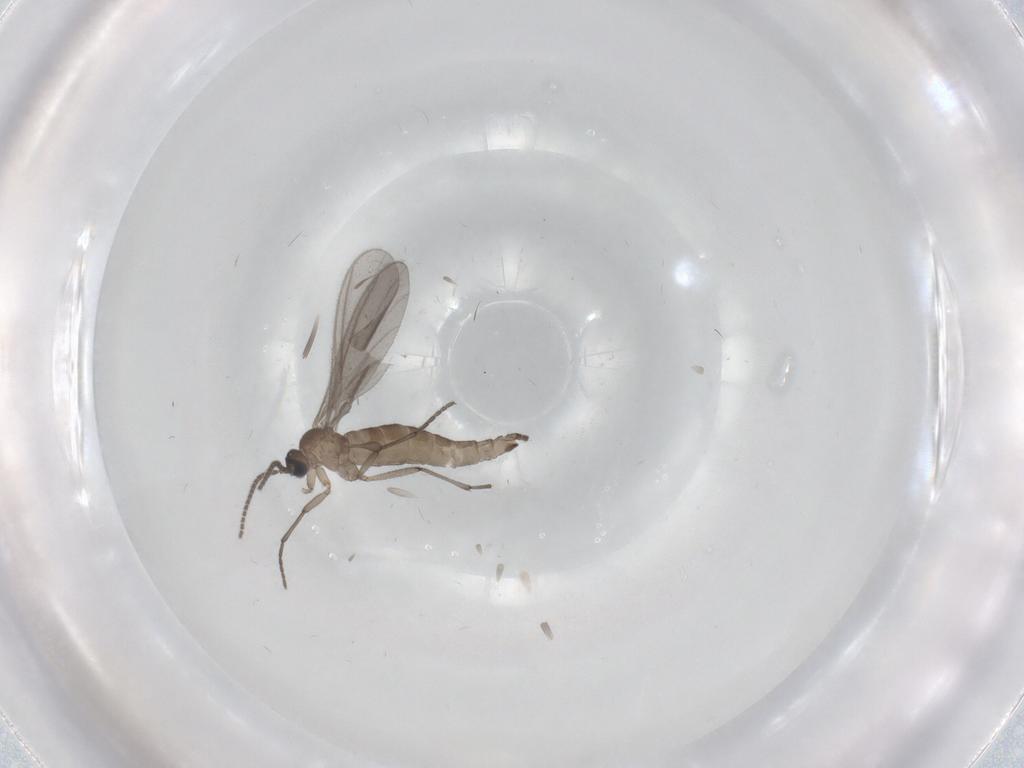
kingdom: Animalia
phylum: Arthropoda
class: Insecta
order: Diptera
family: Sciaridae
